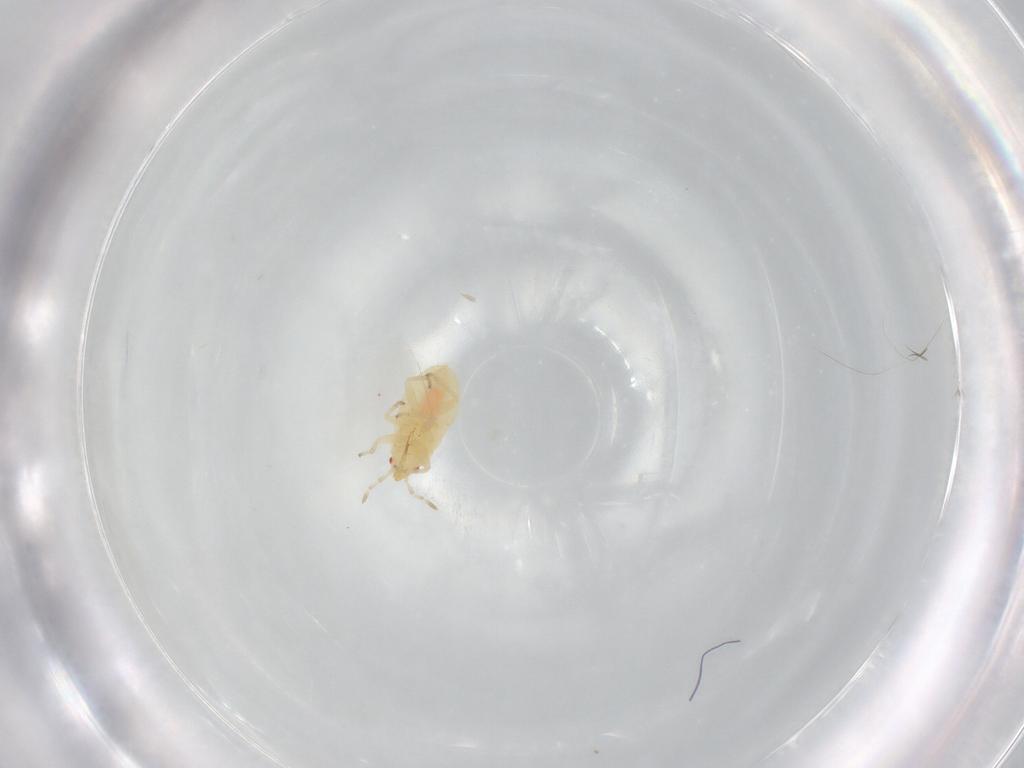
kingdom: Animalia
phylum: Arthropoda
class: Insecta
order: Hemiptera
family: Anthocoridae
